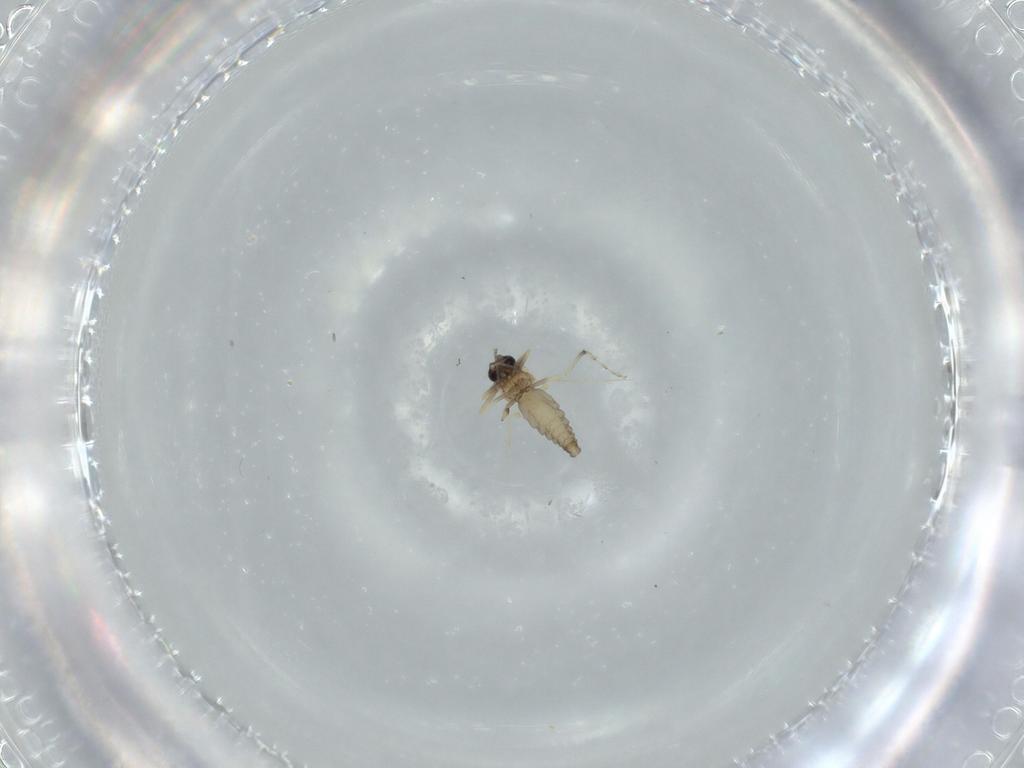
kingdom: Animalia
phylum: Arthropoda
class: Insecta
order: Diptera
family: Ceratopogonidae
